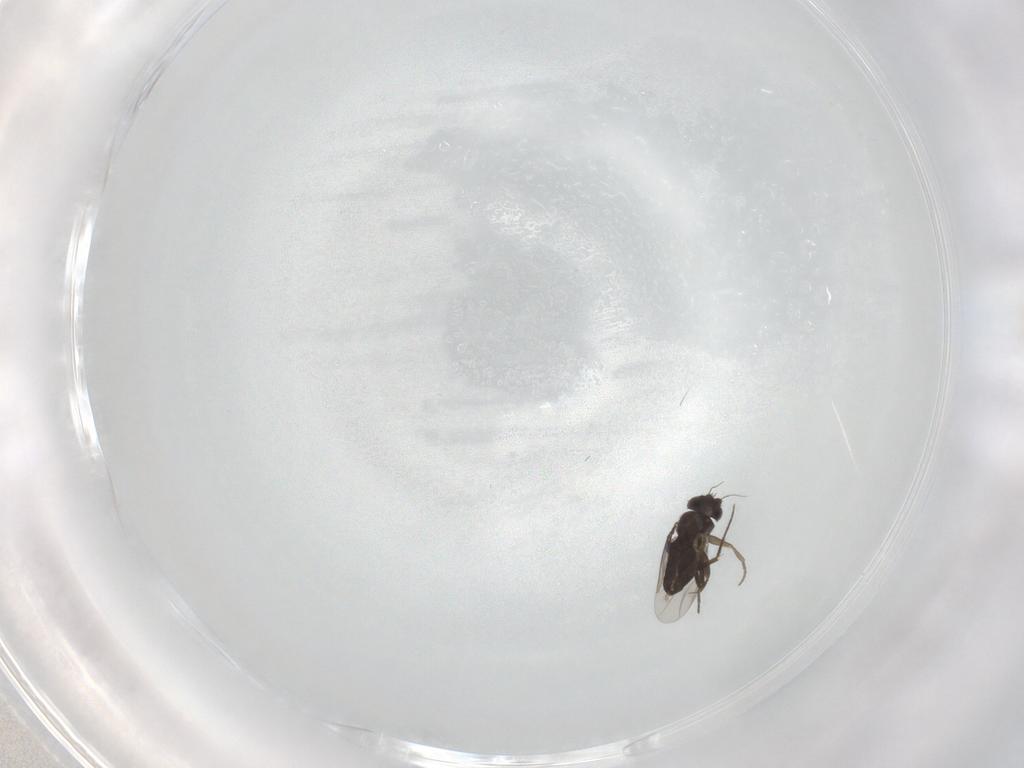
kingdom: Animalia
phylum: Arthropoda
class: Insecta
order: Diptera
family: Phoridae
